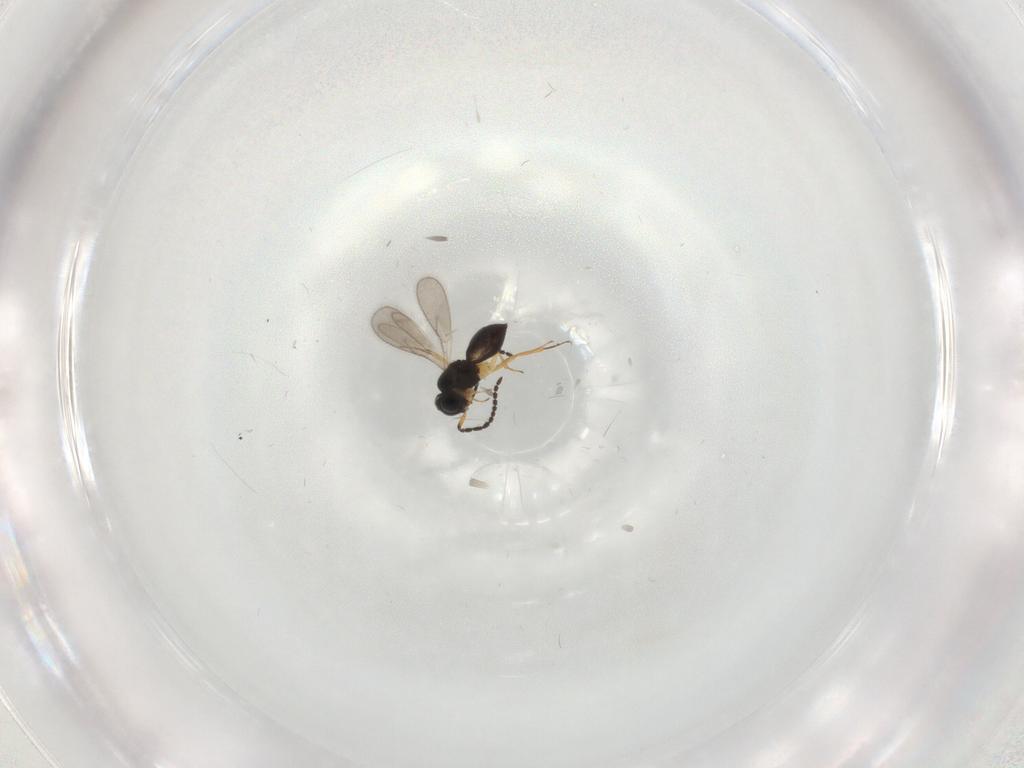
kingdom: Animalia
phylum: Arthropoda
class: Insecta
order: Hymenoptera
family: Scelionidae
